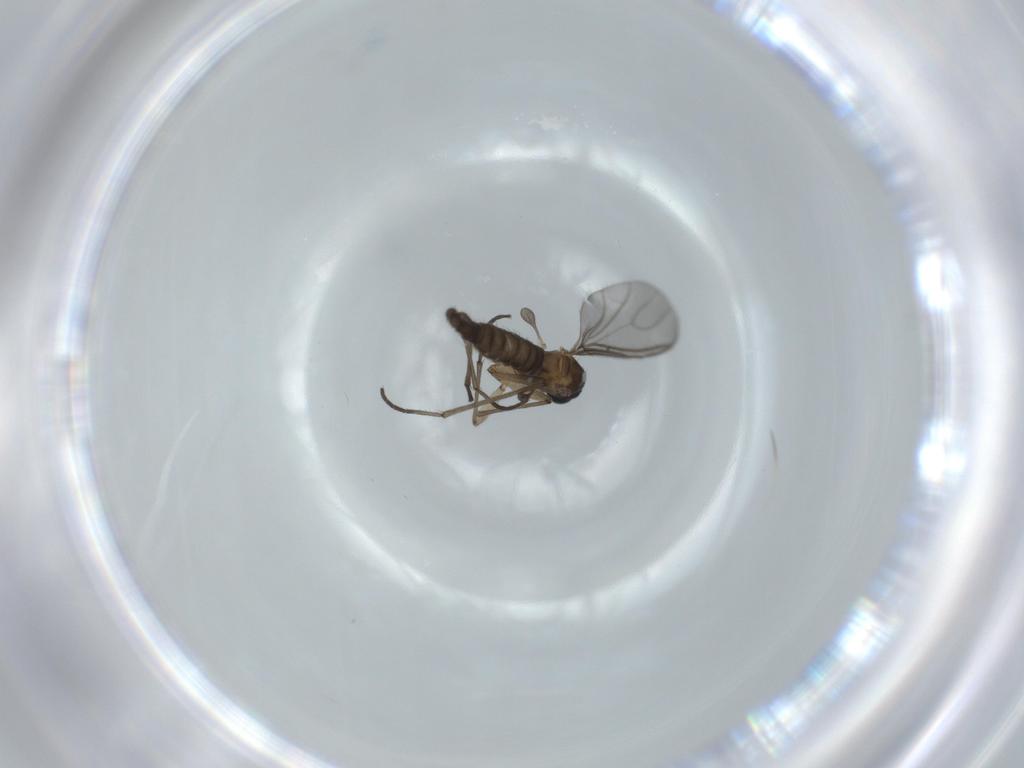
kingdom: Animalia
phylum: Arthropoda
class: Insecta
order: Diptera
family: Sciaridae
